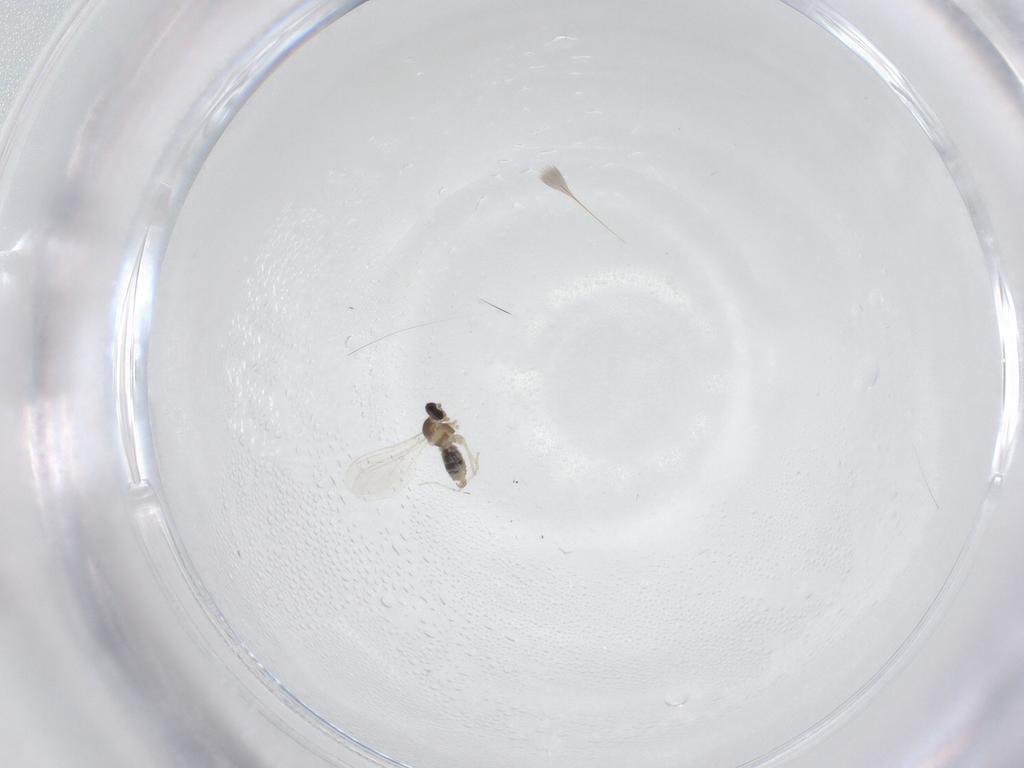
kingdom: Animalia
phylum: Arthropoda
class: Insecta
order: Diptera
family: Cecidomyiidae
